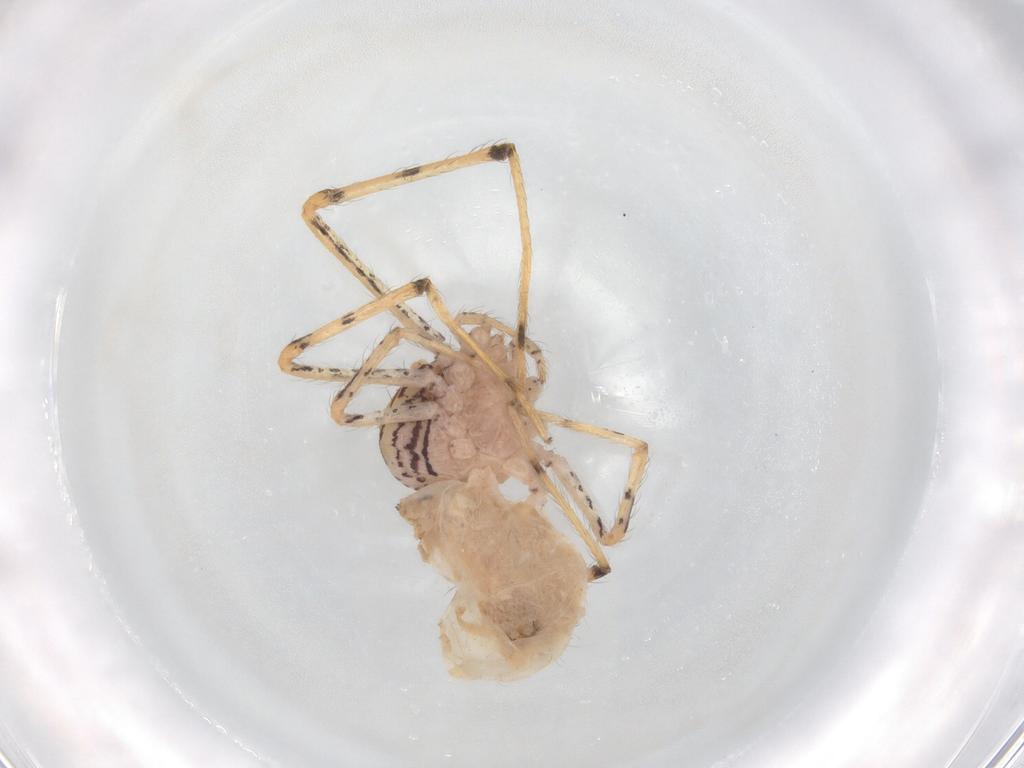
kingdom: Animalia
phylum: Arthropoda
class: Arachnida
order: Araneae
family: Scytodidae
